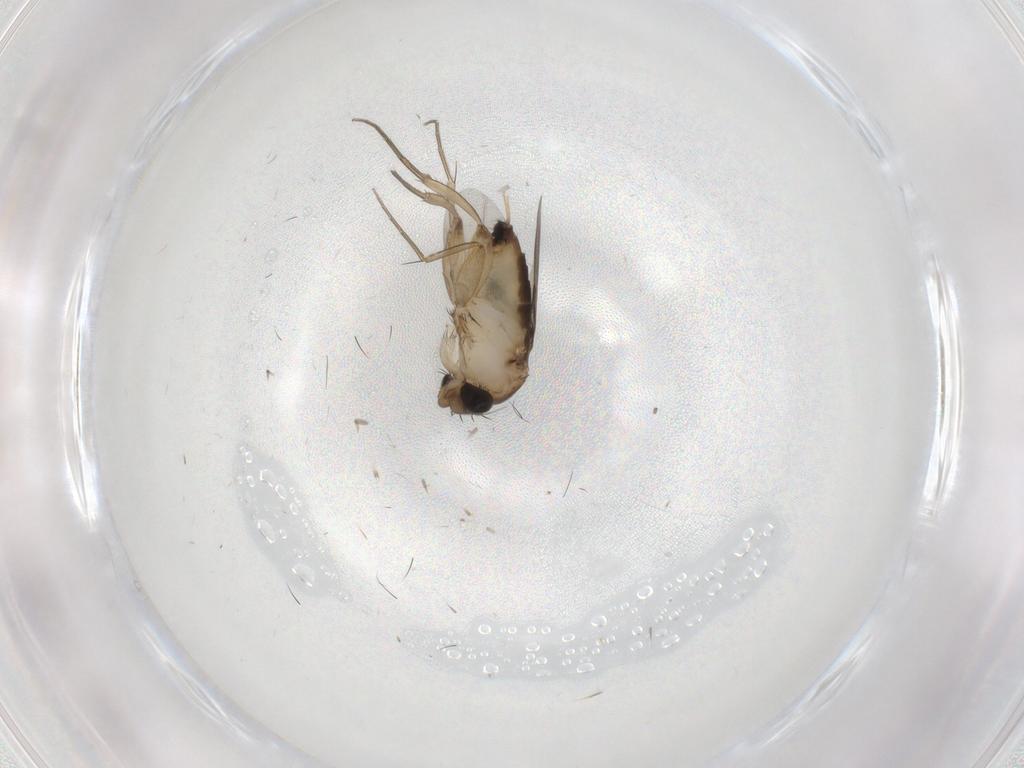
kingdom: Animalia
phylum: Arthropoda
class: Insecta
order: Diptera
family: Phoridae
